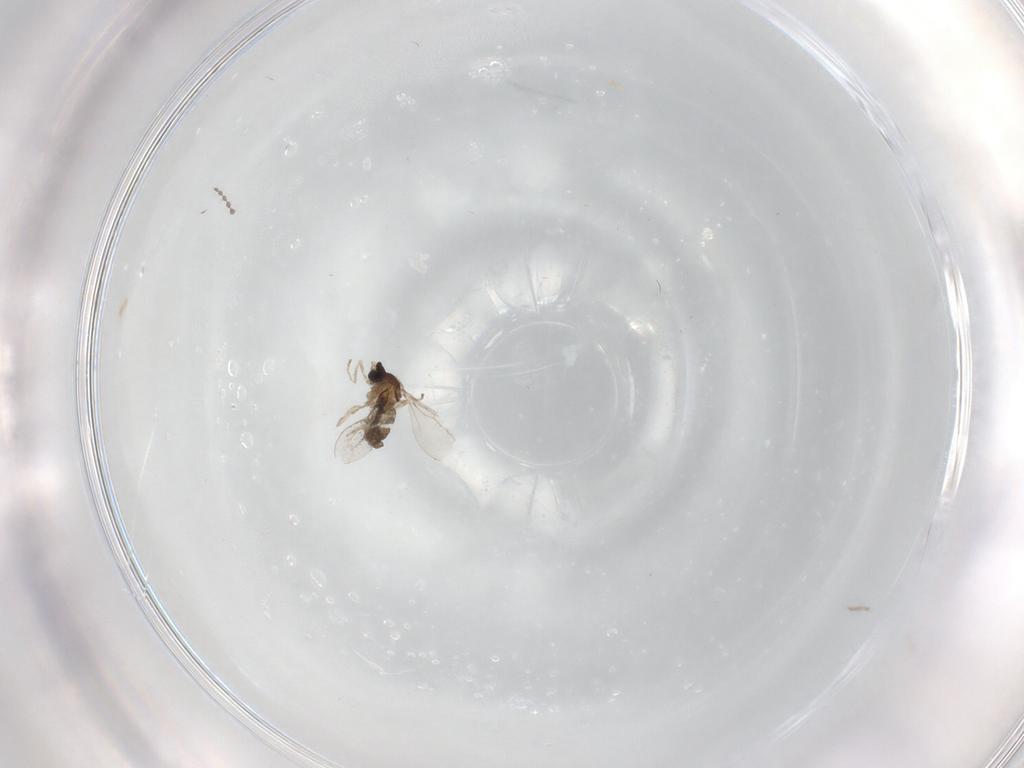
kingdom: Animalia
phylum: Arthropoda
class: Insecta
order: Diptera
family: Cecidomyiidae
